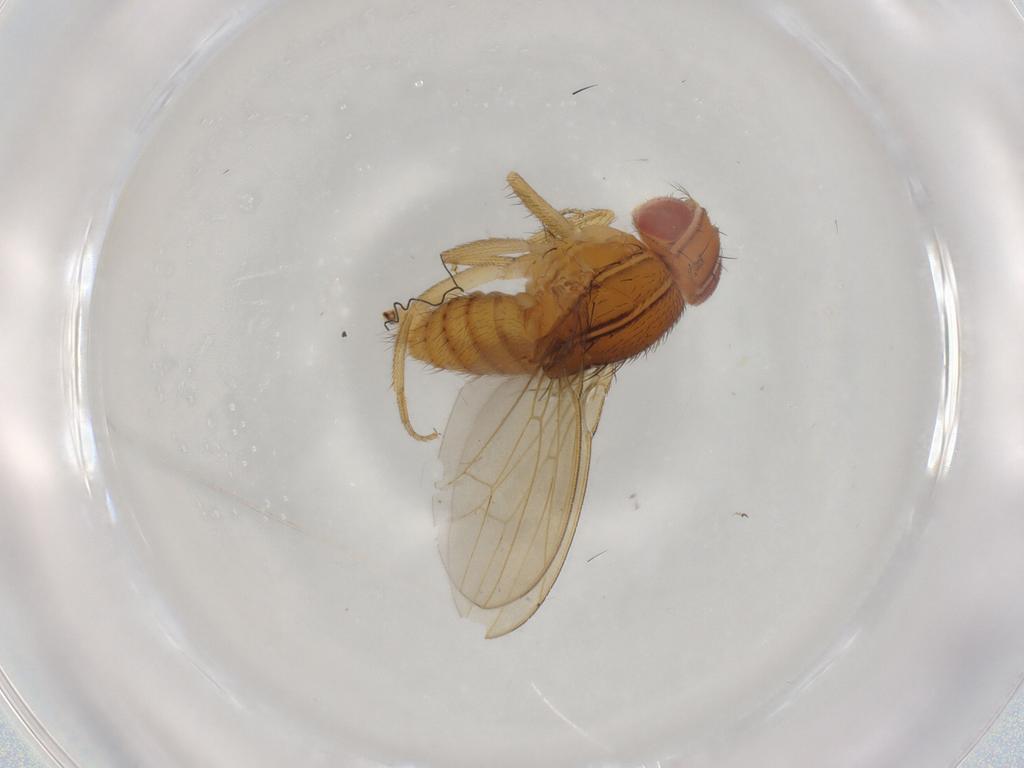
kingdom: Animalia
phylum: Arthropoda
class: Insecta
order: Diptera
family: Drosophilidae
